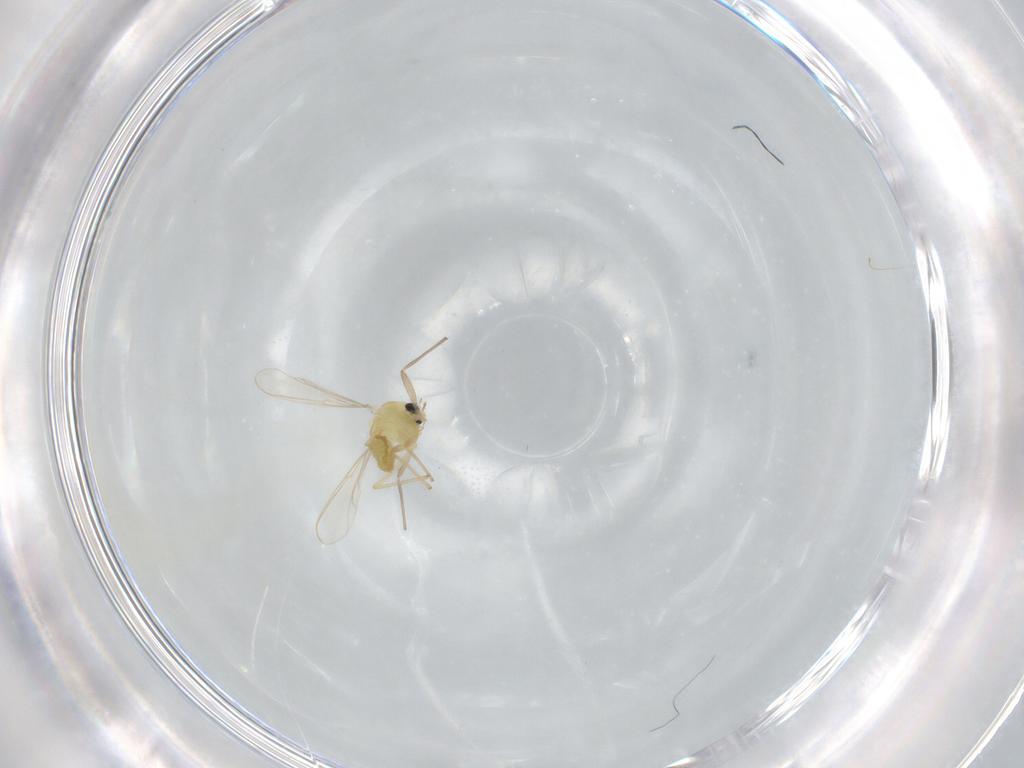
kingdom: Animalia
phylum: Arthropoda
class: Insecta
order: Diptera
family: Chironomidae
